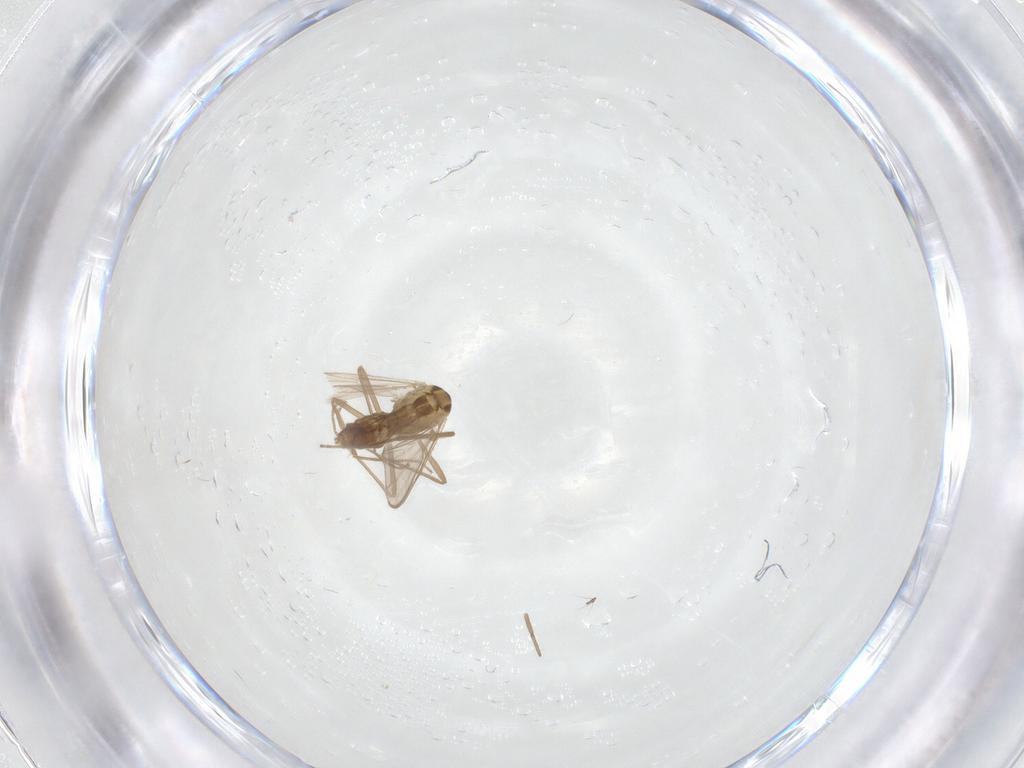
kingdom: Animalia
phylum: Arthropoda
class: Insecta
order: Diptera
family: Chironomidae
